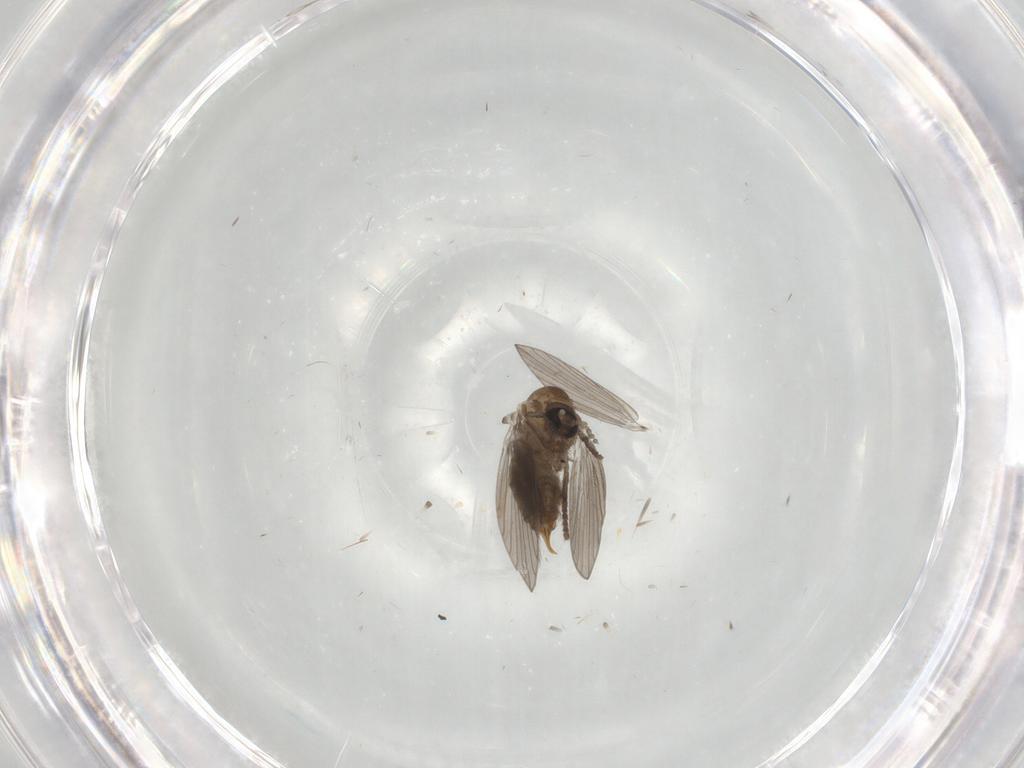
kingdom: Animalia
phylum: Arthropoda
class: Insecta
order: Diptera
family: Psychodidae
